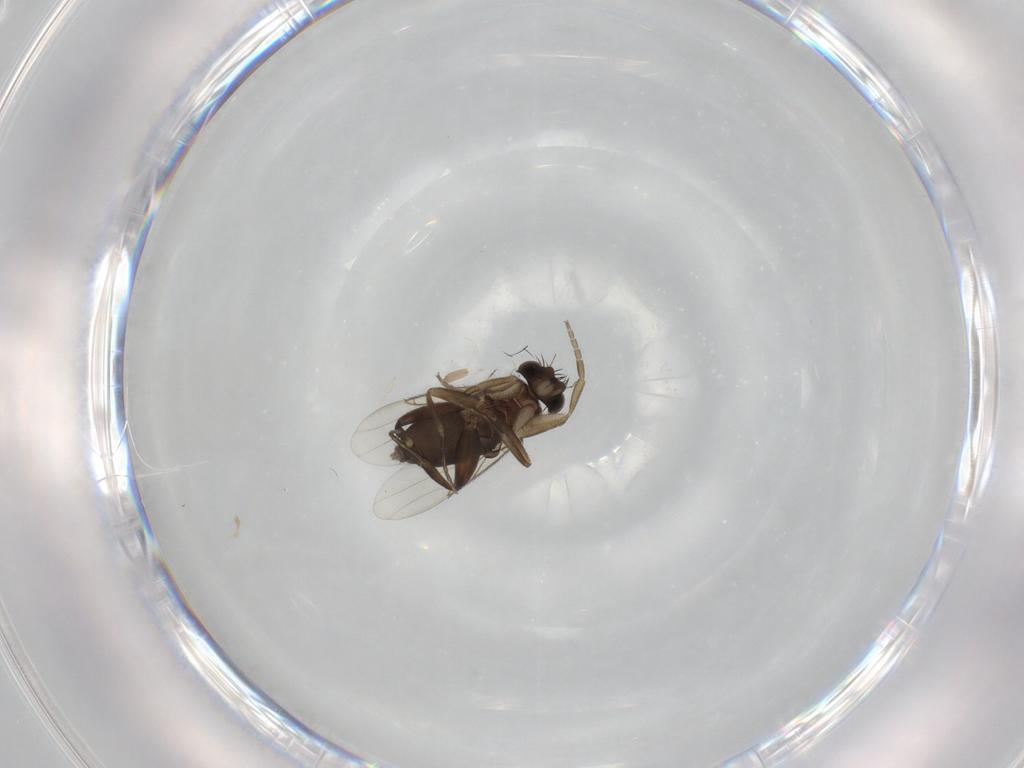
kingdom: Animalia
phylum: Arthropoda
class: Insecta
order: Diptera
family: Phoridae
